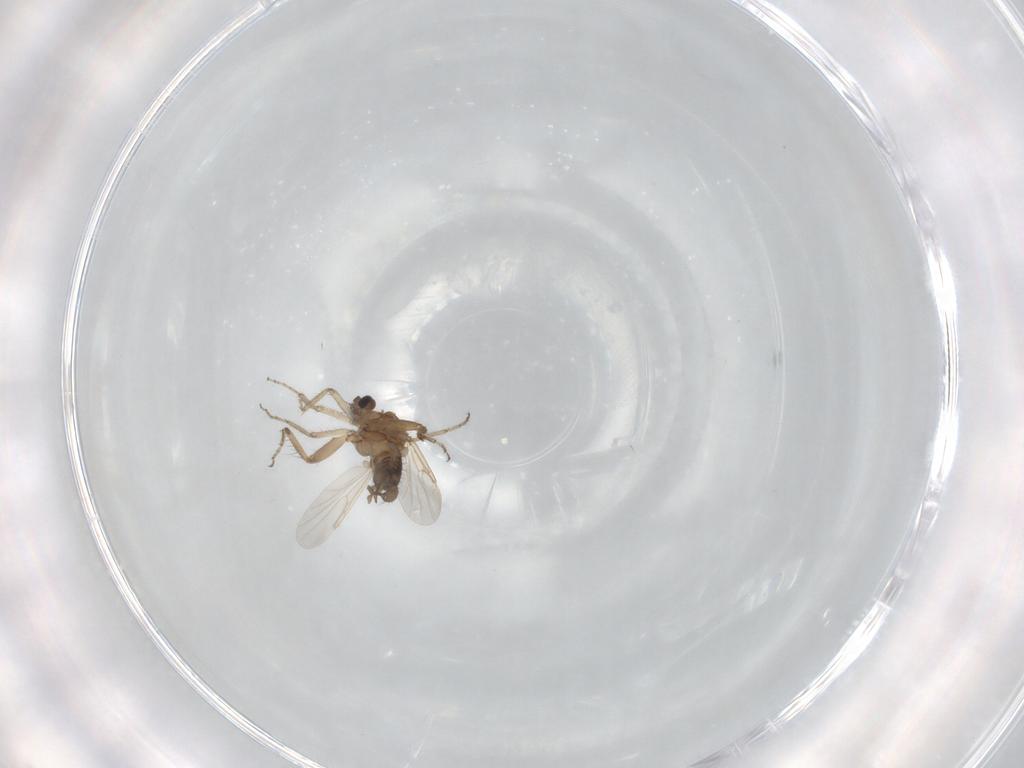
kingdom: Animalia
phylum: Arthropoda
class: Insecta
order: Diptera
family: Ceratopogonidae
